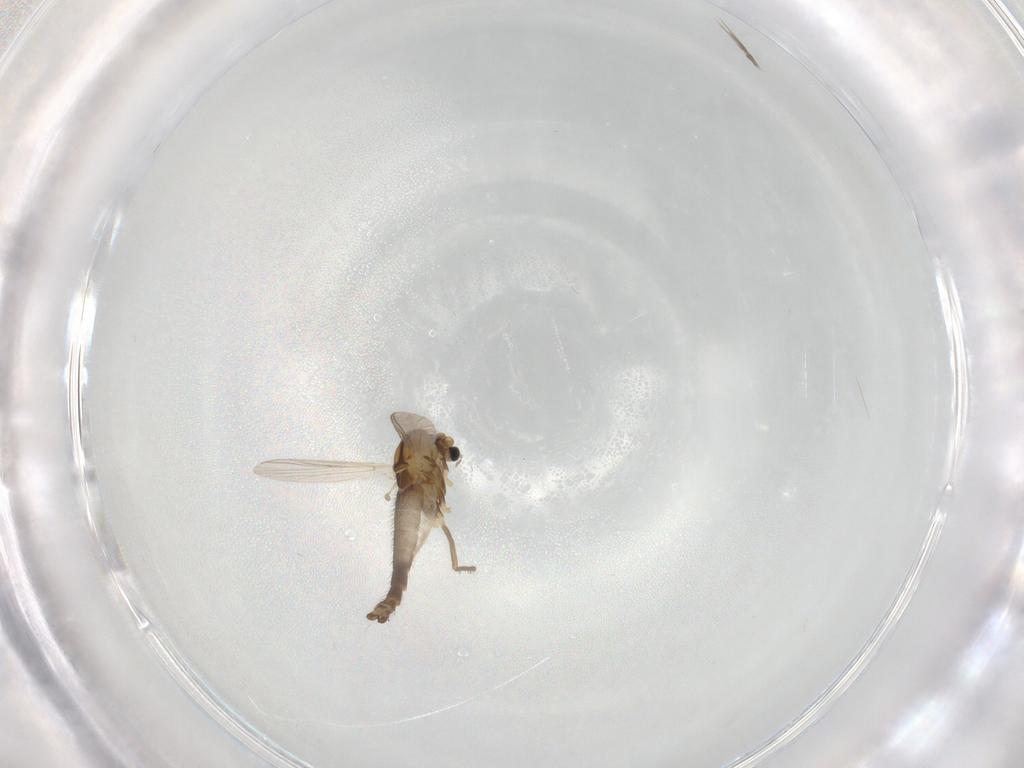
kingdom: Animalia
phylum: Arthropoda
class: Insecta
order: Diptera
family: Chironomidae
